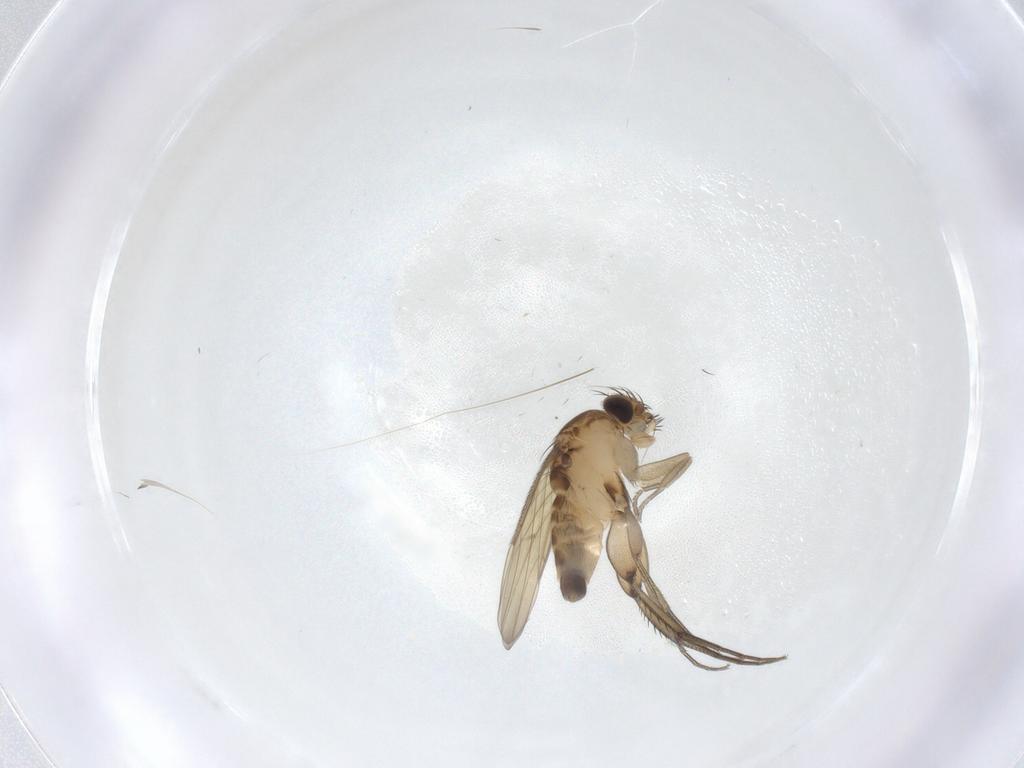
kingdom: Animalia
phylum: Arthropoda
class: Insecta
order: Diptera
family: Phoridae
